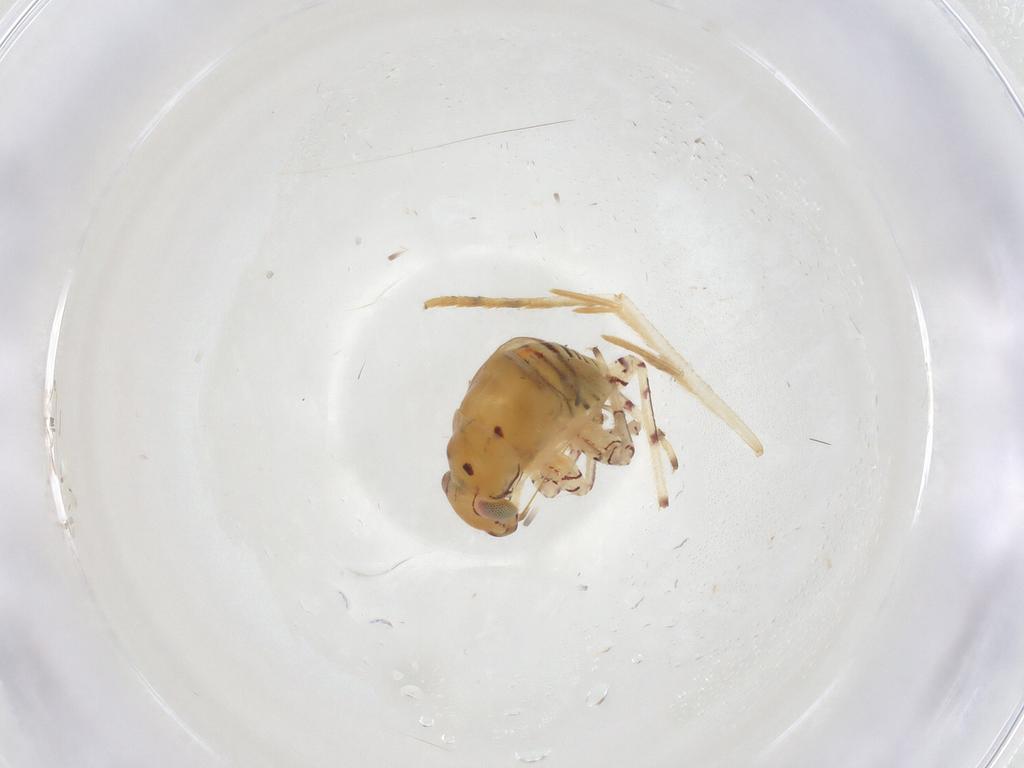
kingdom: Animalia
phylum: Arthropoda
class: Insecta
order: Hemiptera
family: Miridae
